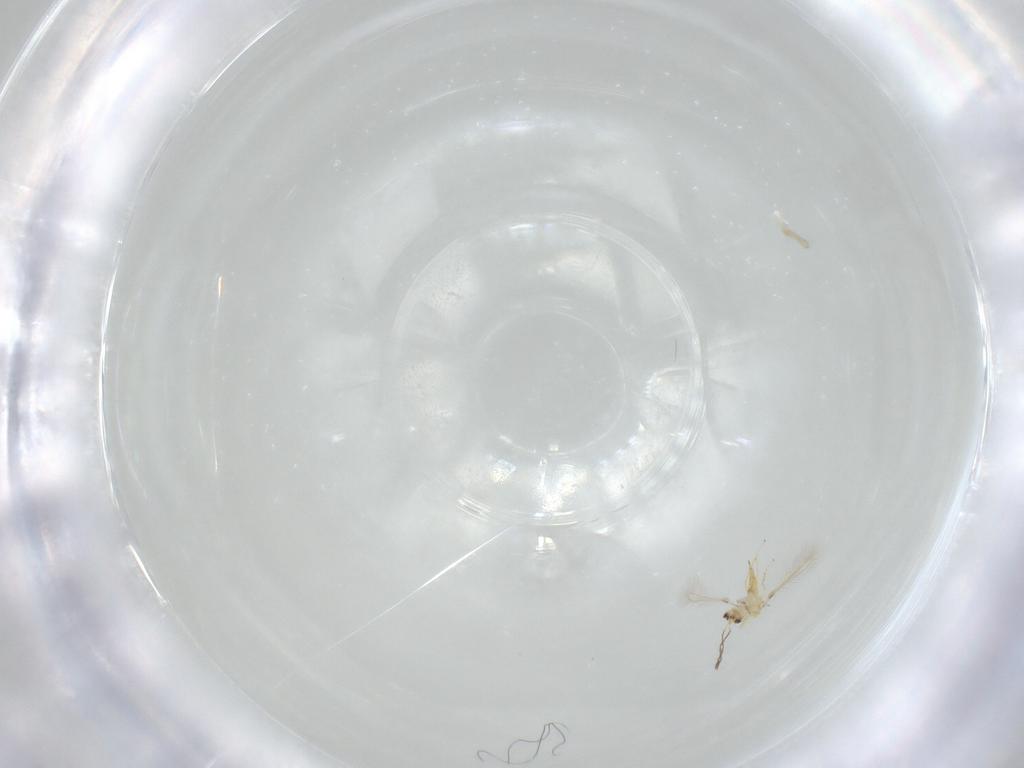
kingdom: Animalia
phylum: Arthropoda
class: Insecta
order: Hymenoptera
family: Mymaridae
